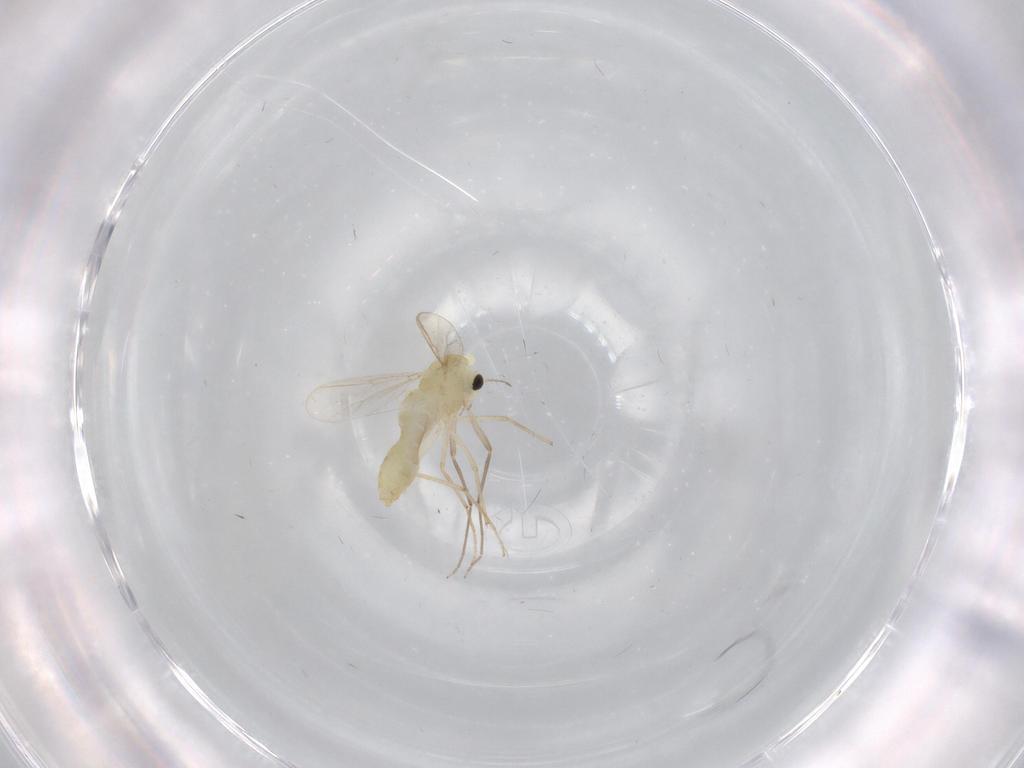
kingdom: Animalia
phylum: Arthropoda
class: Insecta
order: Diptera
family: Chironomidae
